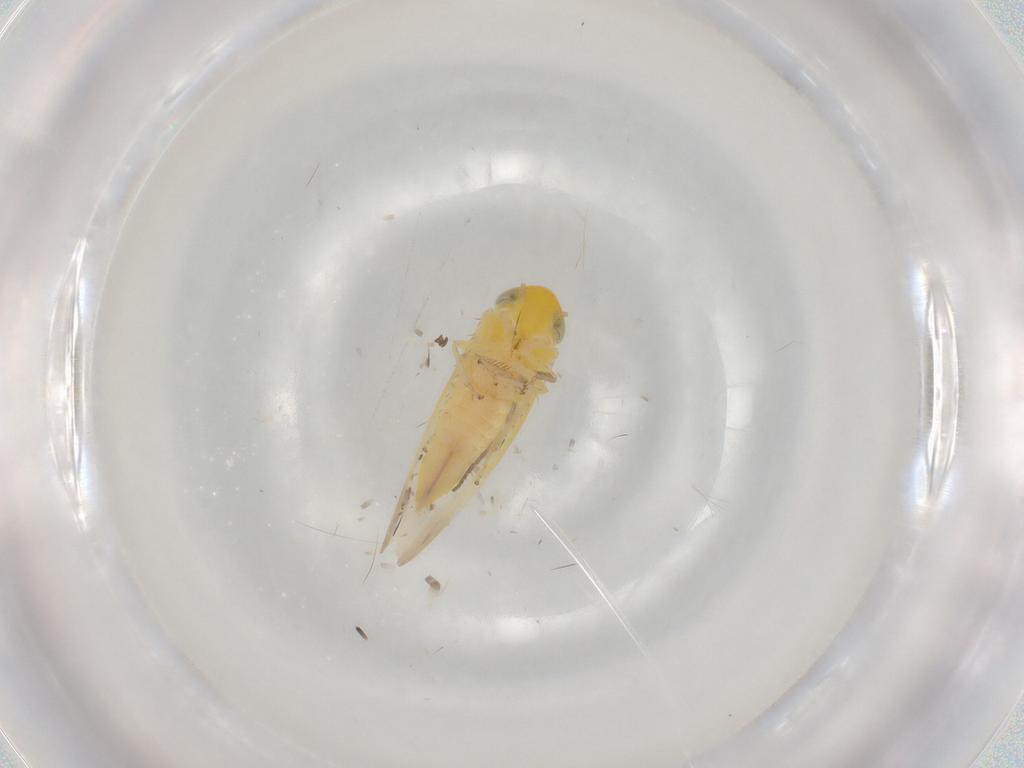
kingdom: Animalia
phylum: Arthropoda
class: Insecta
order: Hemiptera
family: Cicadellidae
